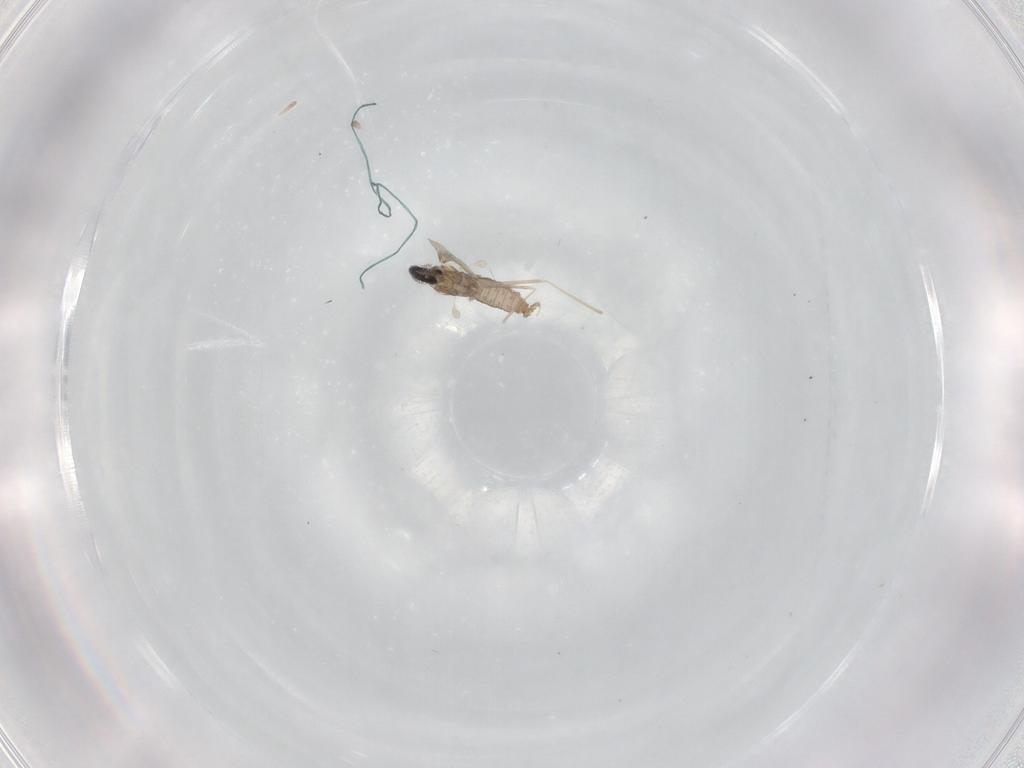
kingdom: Animalia
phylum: Arthropoda
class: Insecta
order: Diptera
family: Cecidomyiidae
